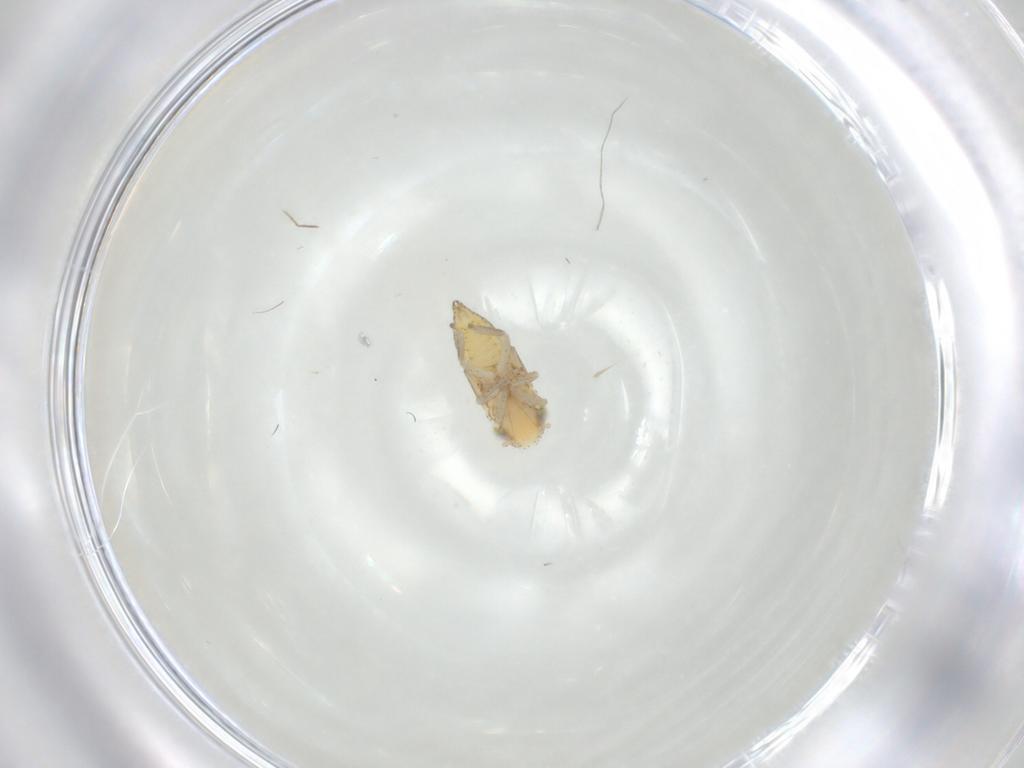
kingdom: Animalia
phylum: Arthropoda
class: Insecta
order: Hemiptera
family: Cicadellidae
